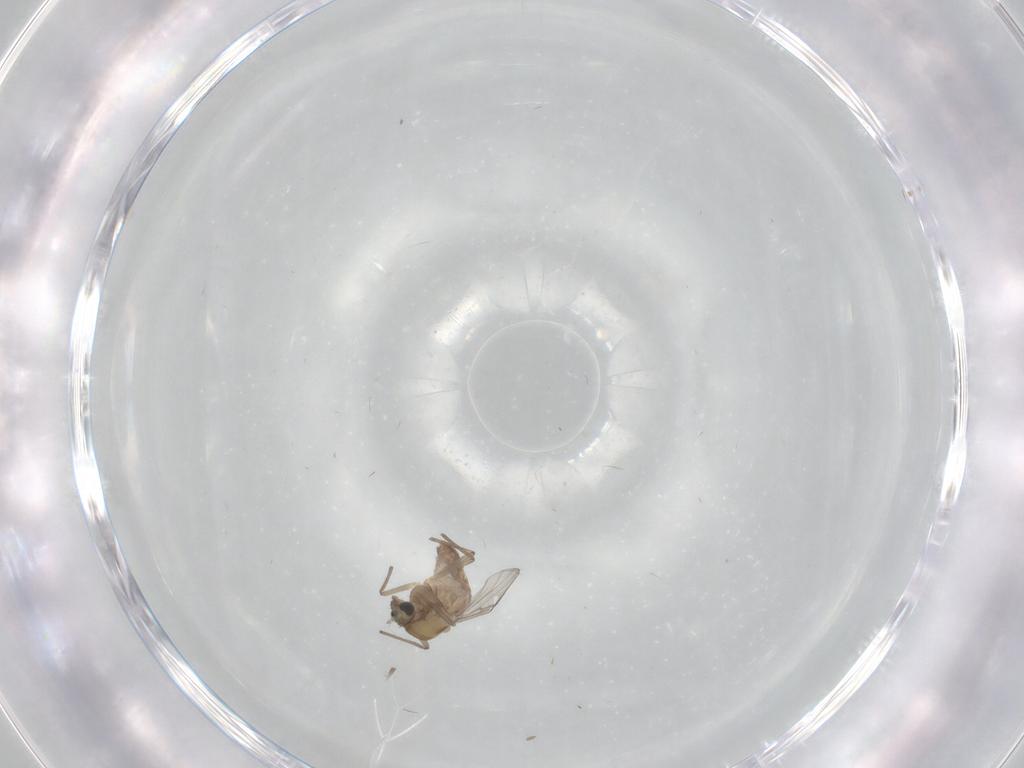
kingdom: Animalia
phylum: Arthropoda
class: Insecta
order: Diptera
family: Chironomidae
